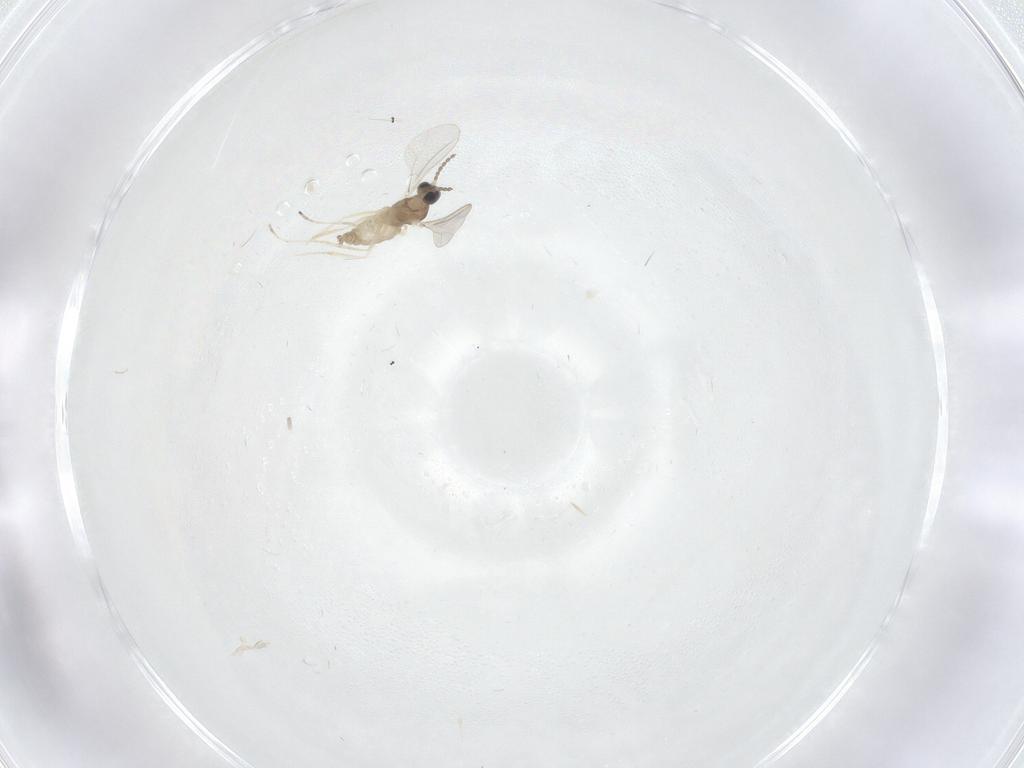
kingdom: Animalia
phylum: Arthropoda
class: Insecta
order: Diptera
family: Cecidomyiidae
